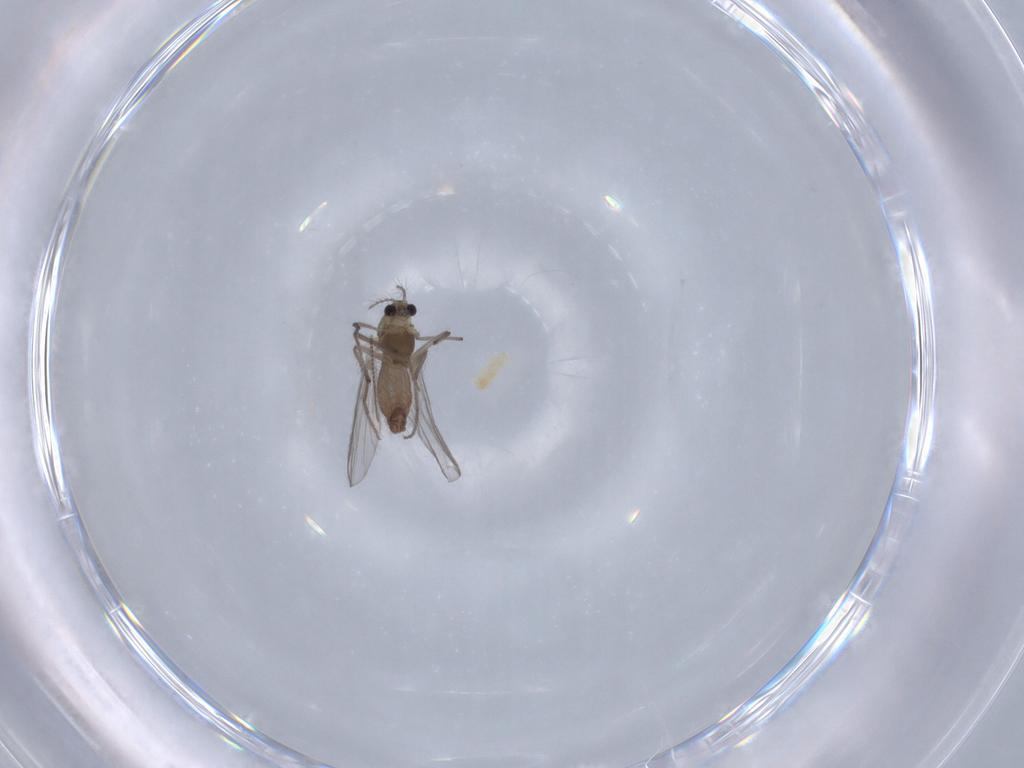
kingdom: Animalia
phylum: Arthropoda
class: Insecta
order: Diptera
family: Chironomidae
